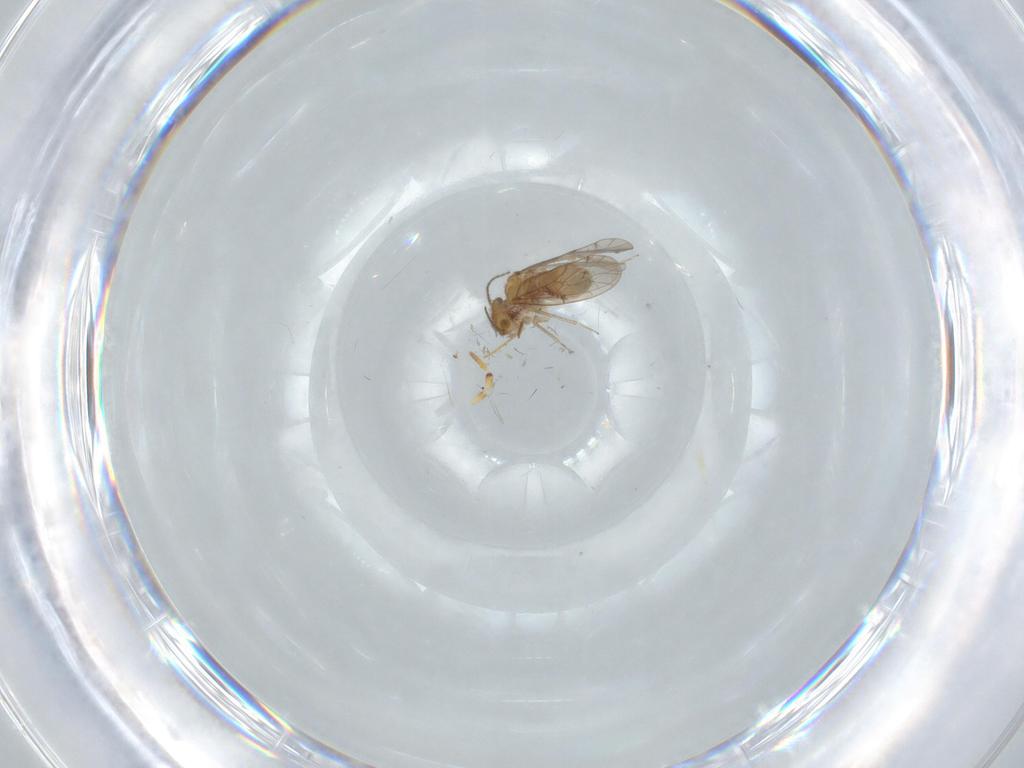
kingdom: Animalia
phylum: Arthropoda
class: Insecta
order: Psocodea
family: Ectopsocidae
